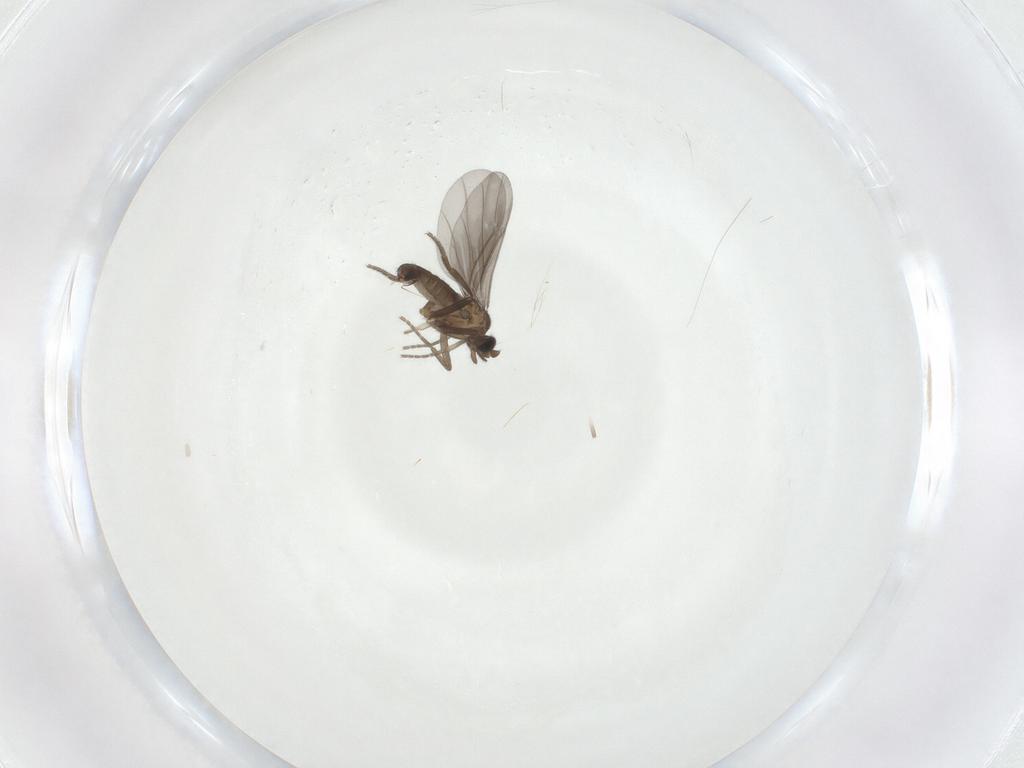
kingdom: Animalia
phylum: Arthropoda
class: Insecta
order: Diptera
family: Phoridae
